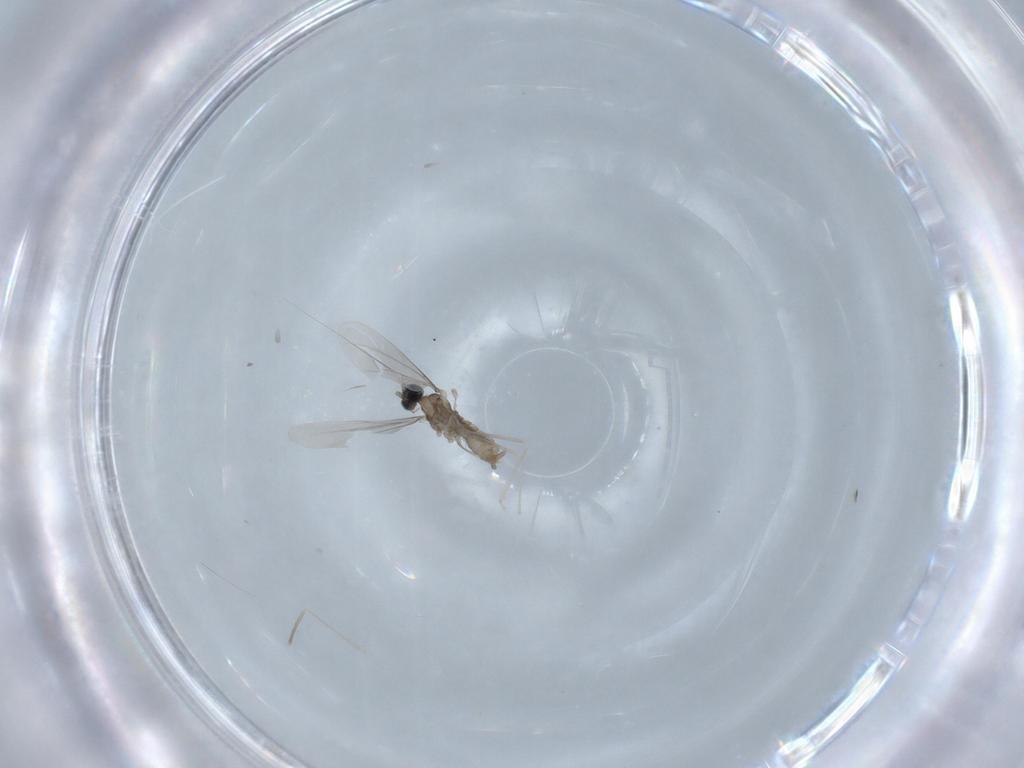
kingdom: Animalia
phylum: Arthropoda
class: Insecta
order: Diptera
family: Cecidomyiidae
